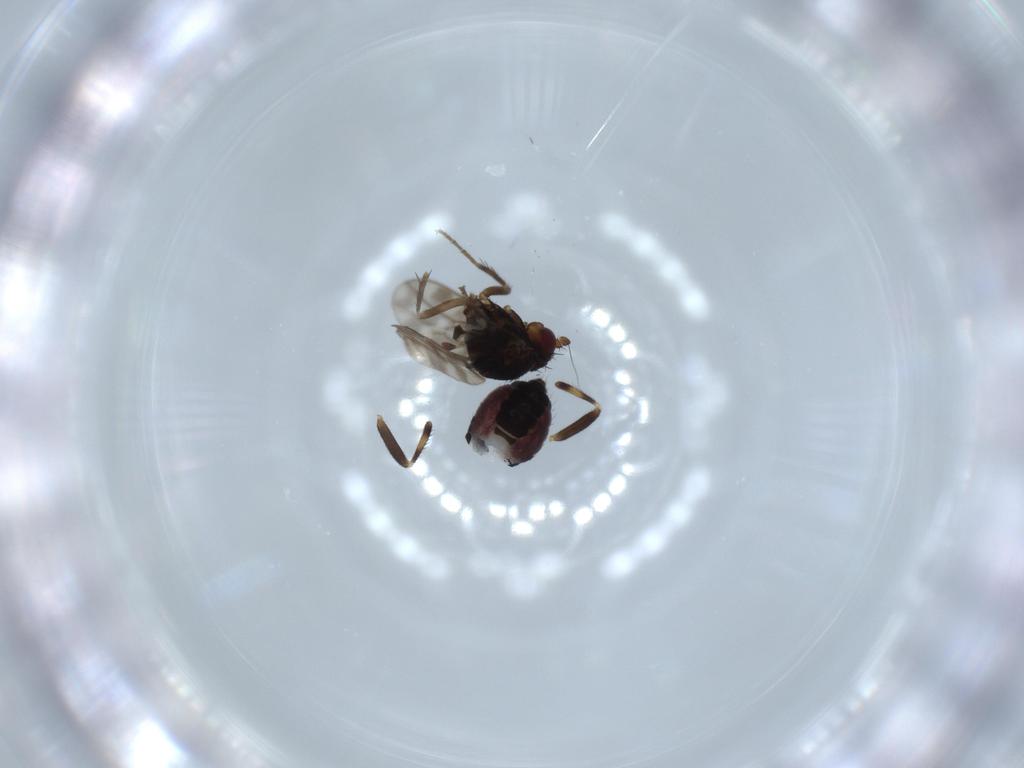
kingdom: Animalia
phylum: Arthropoda
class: Insecta
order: Diptera
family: Sphaeroceridae
